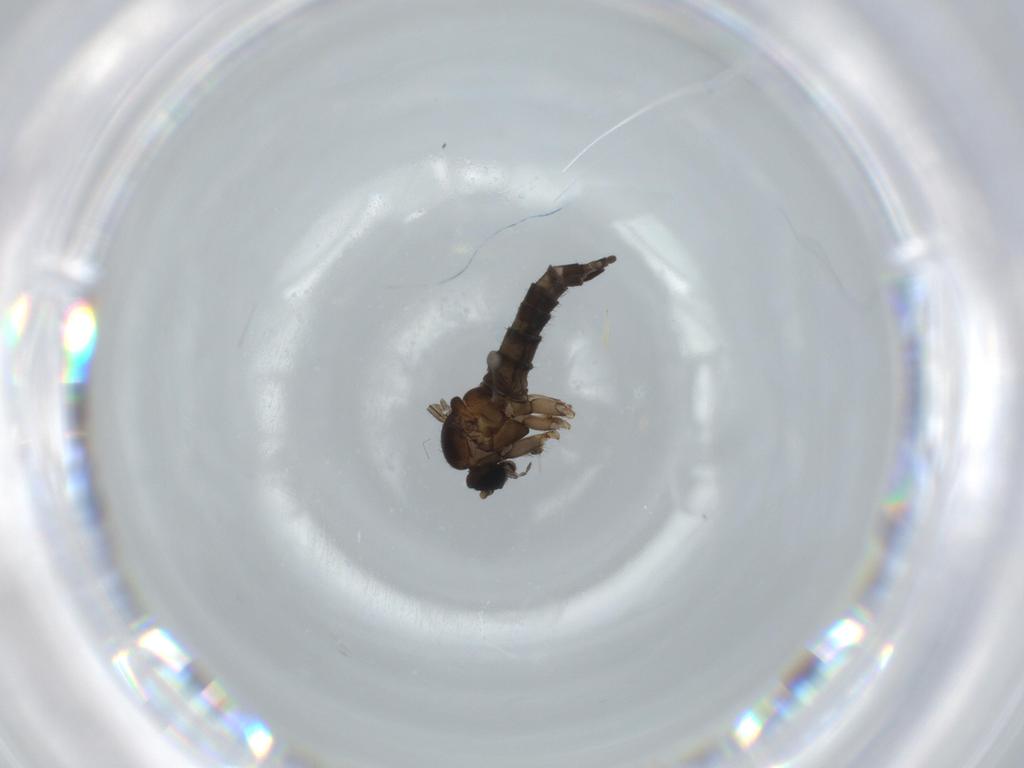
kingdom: Animalia
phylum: Arthropoda
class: Insecta
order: Diptera
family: Sciaridae
